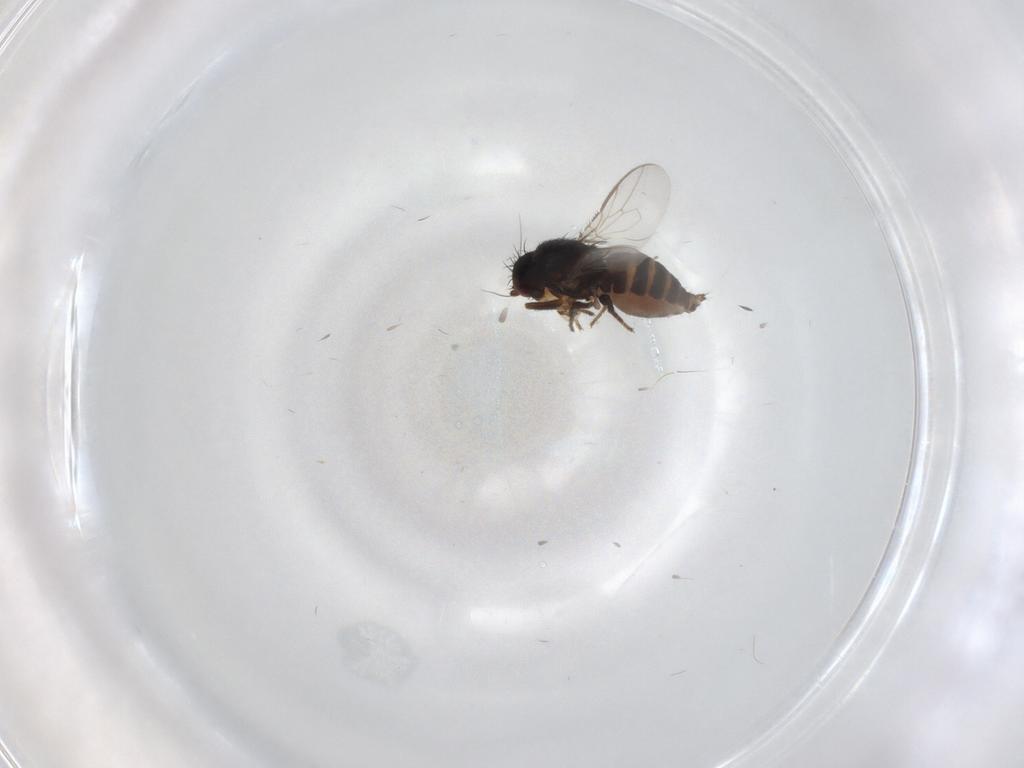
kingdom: Animalia
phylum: Arthropoda
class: Insecta
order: Diptera
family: Sphaeroceridae
